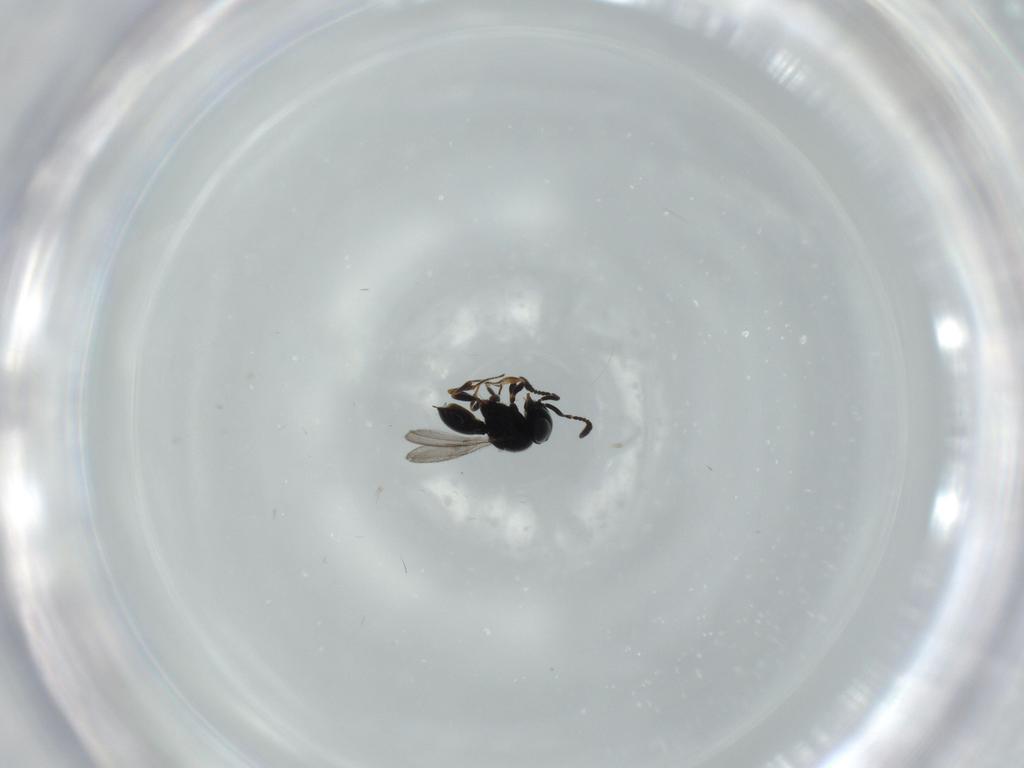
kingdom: Animalia
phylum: Arthropoda
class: Insecta
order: Hymenoptera
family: Scelionidae
